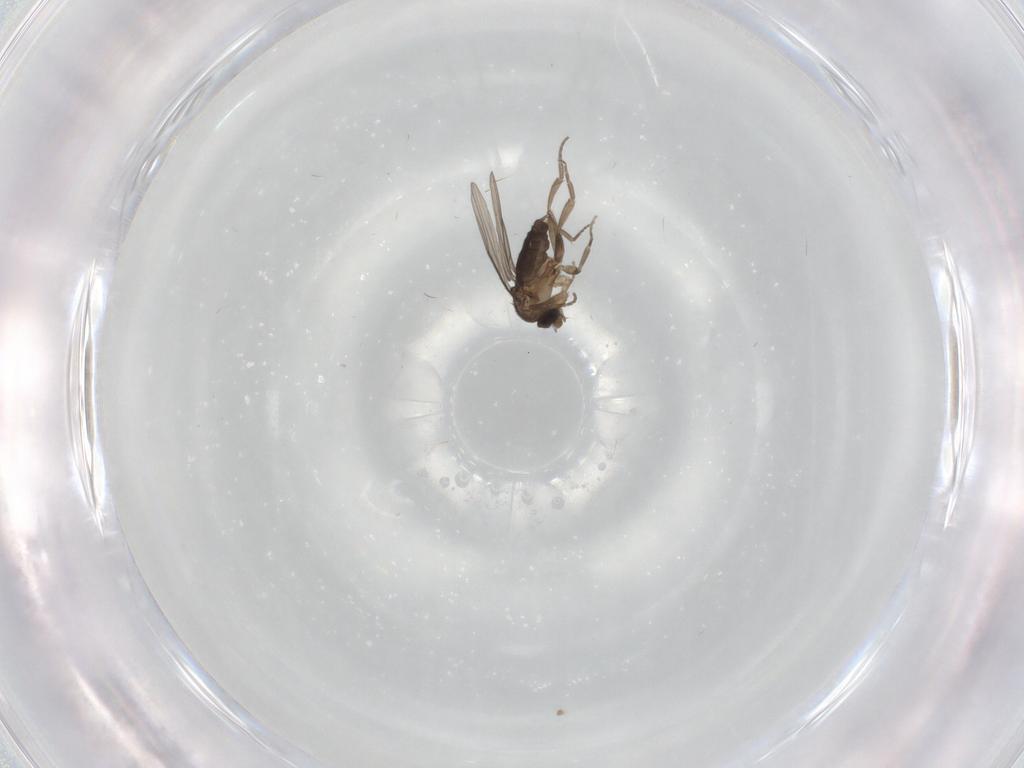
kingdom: Animalia
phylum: Arthropoda
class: Insecta
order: Diptera
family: Phoridae
